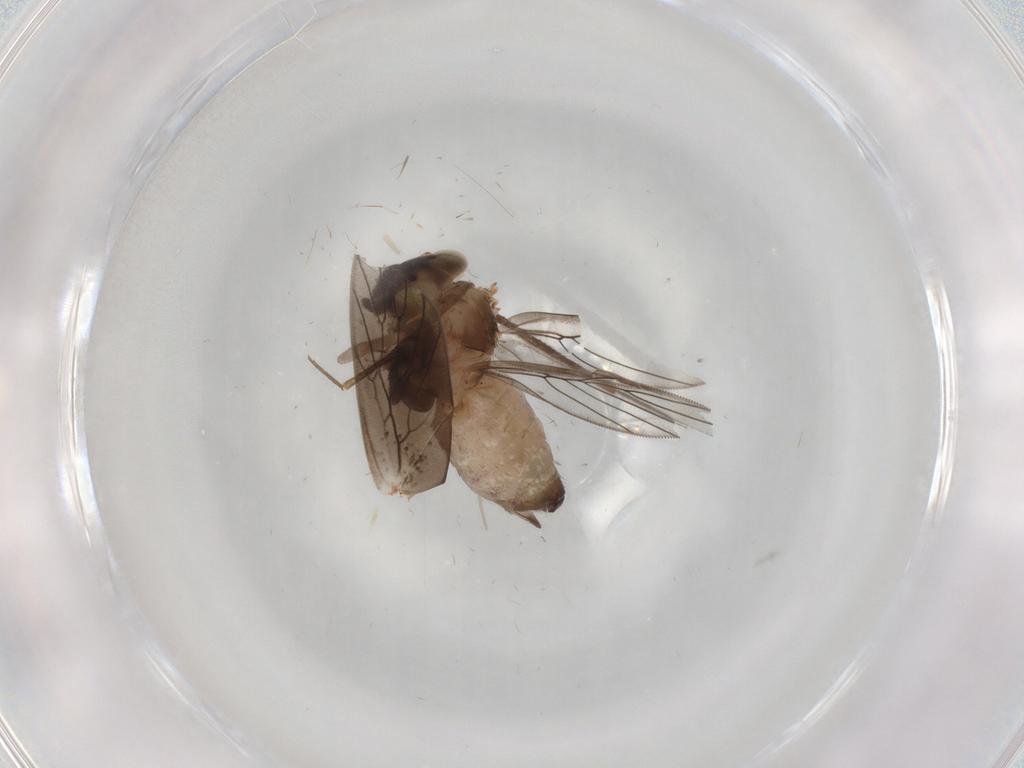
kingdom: Animalia
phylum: Arthropoda
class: Insecta
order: Psocodea
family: Lepidopsocidae
